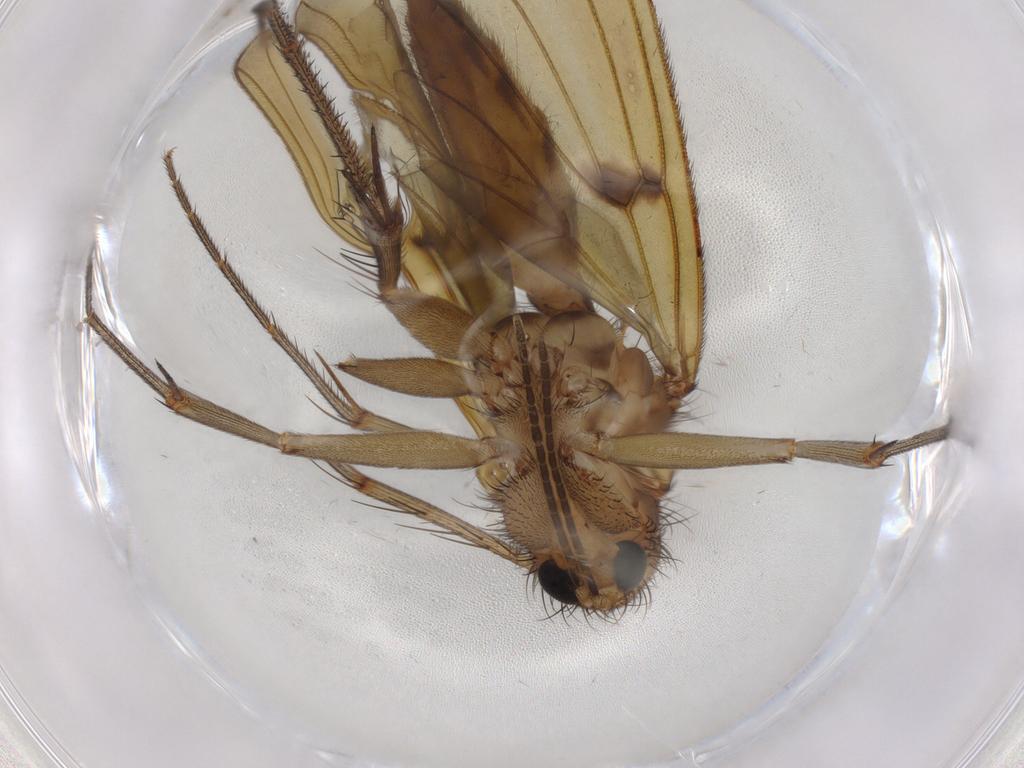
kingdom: Animalia
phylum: Arthropoda
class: Insecta
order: Diptera
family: Mycetophilidae
